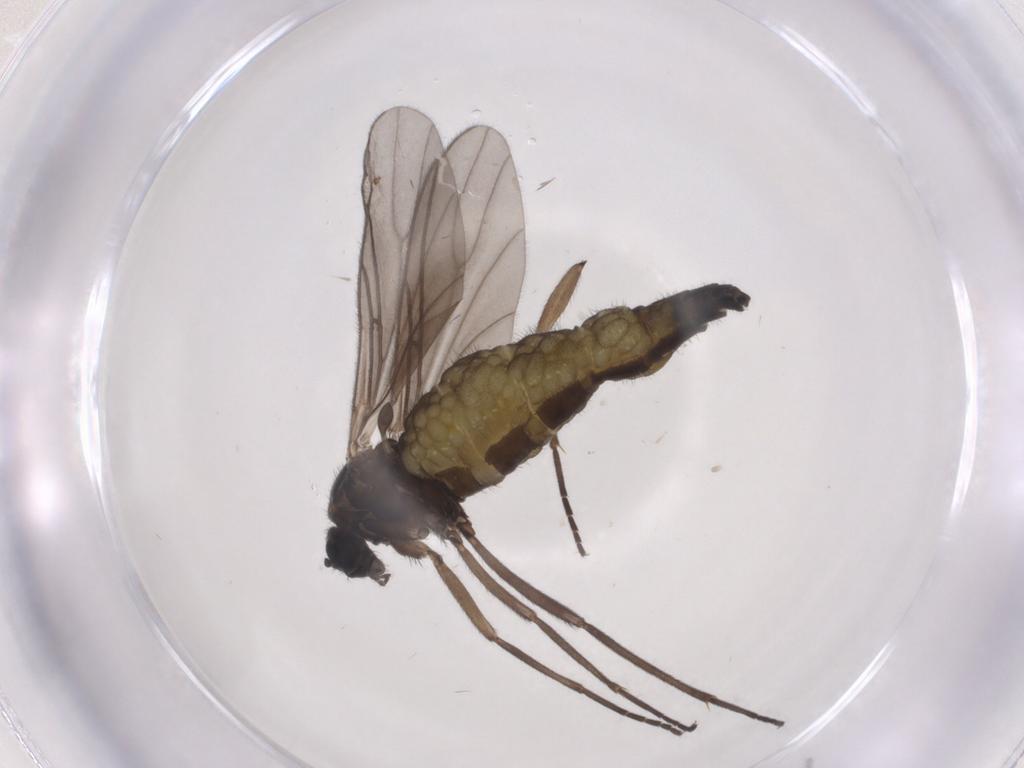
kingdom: Animalia
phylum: Arthropoda
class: Insecta
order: Diptera
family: Sciaridae
